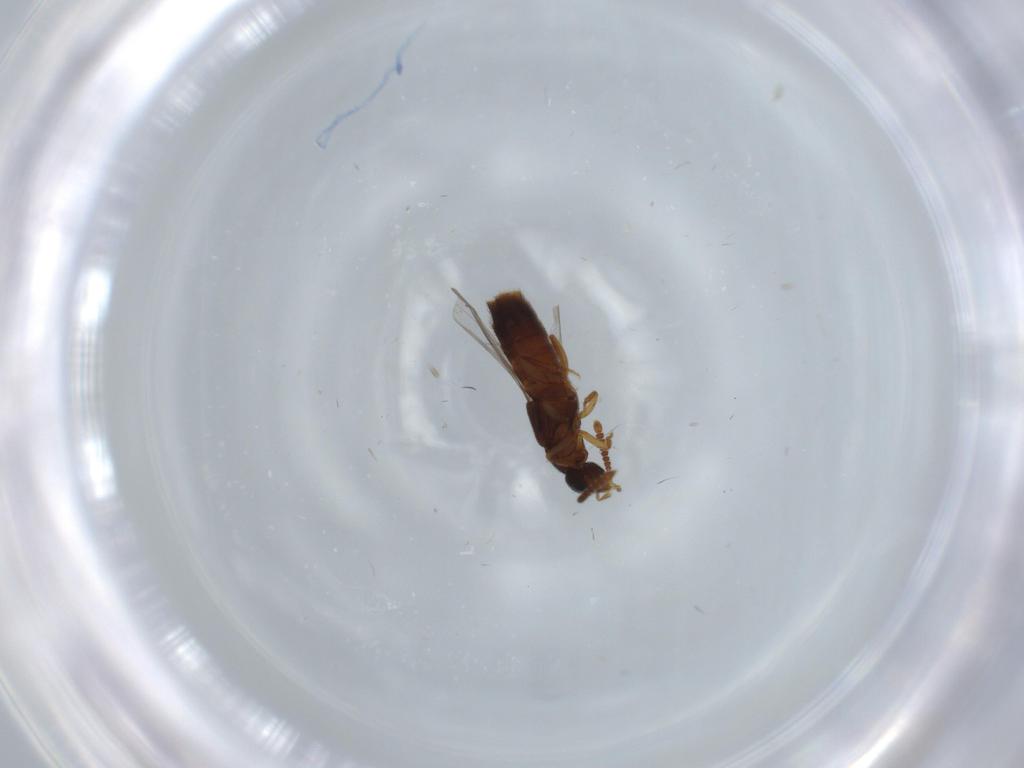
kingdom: Animalia
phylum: Arthropoda
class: Insecta
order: Coleoptera
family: Staphylinidae
